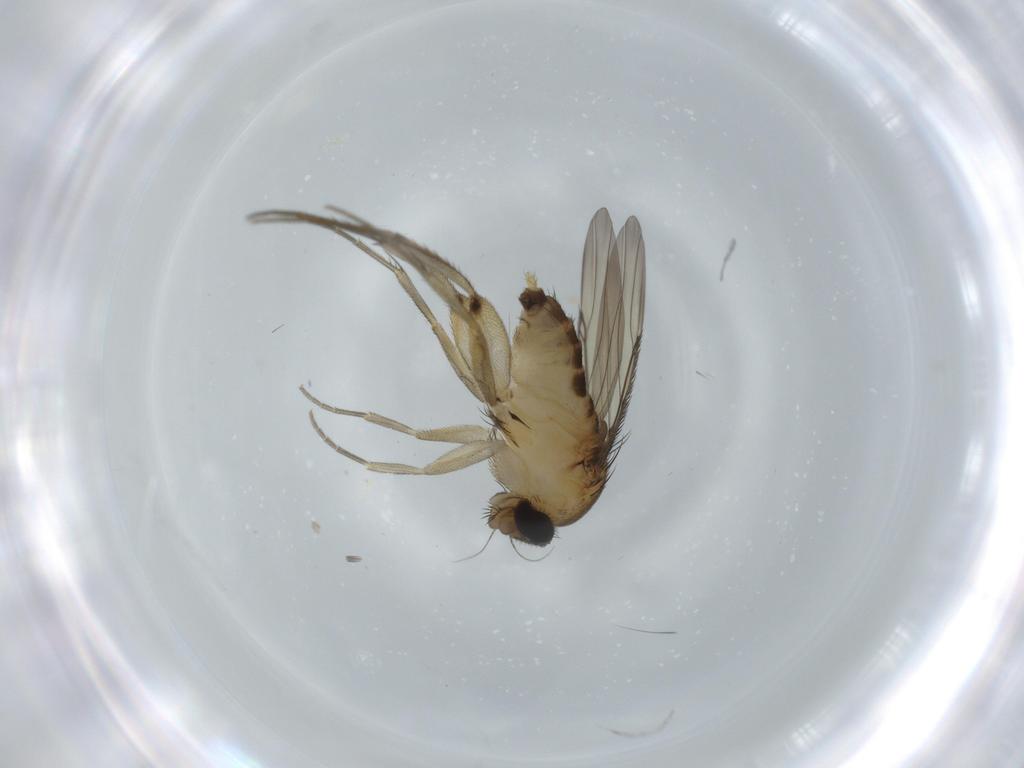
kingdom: Animalia
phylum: Arthropoda
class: Insecta
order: Diptera
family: Phoridae
